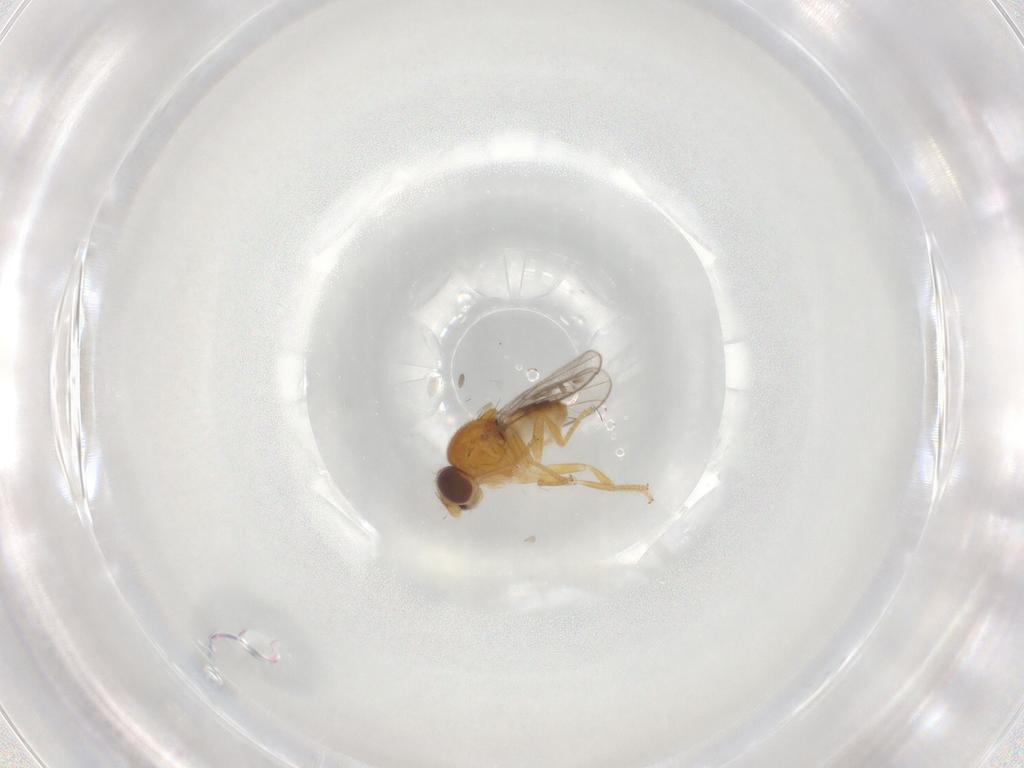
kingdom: Animalia
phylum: Arthropoda
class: Insecta
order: Diptera
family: Chloropidae
